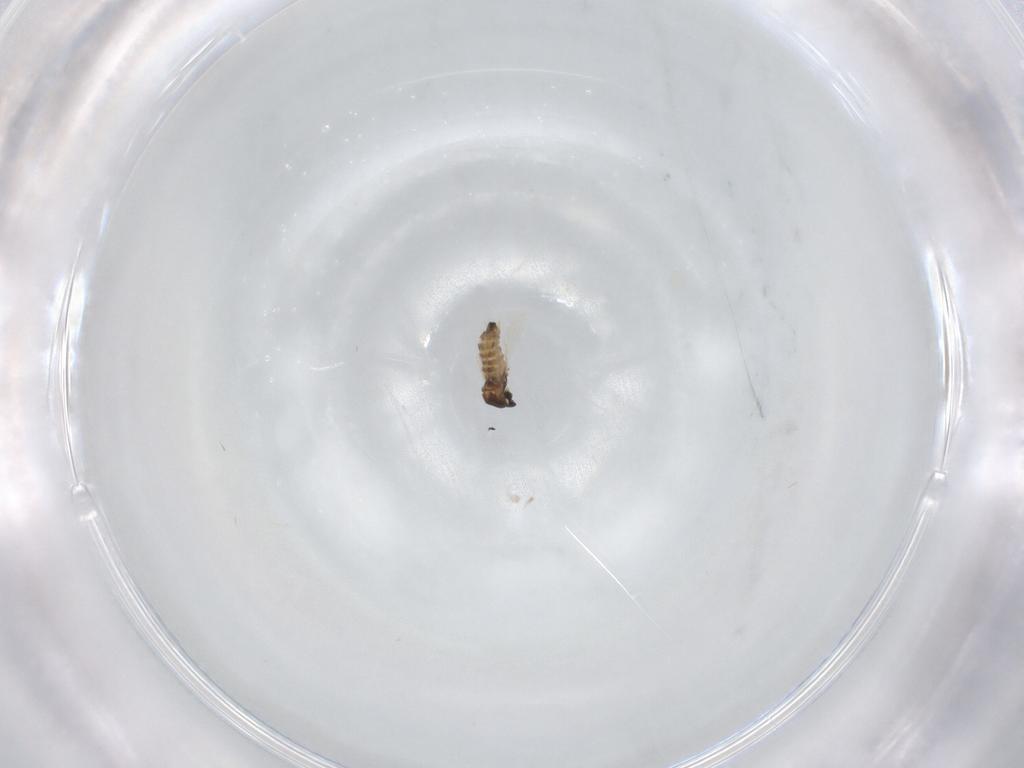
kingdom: Animalia
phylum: Arthropoda
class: Insecta
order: Diptera
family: Cecidomyiidae
